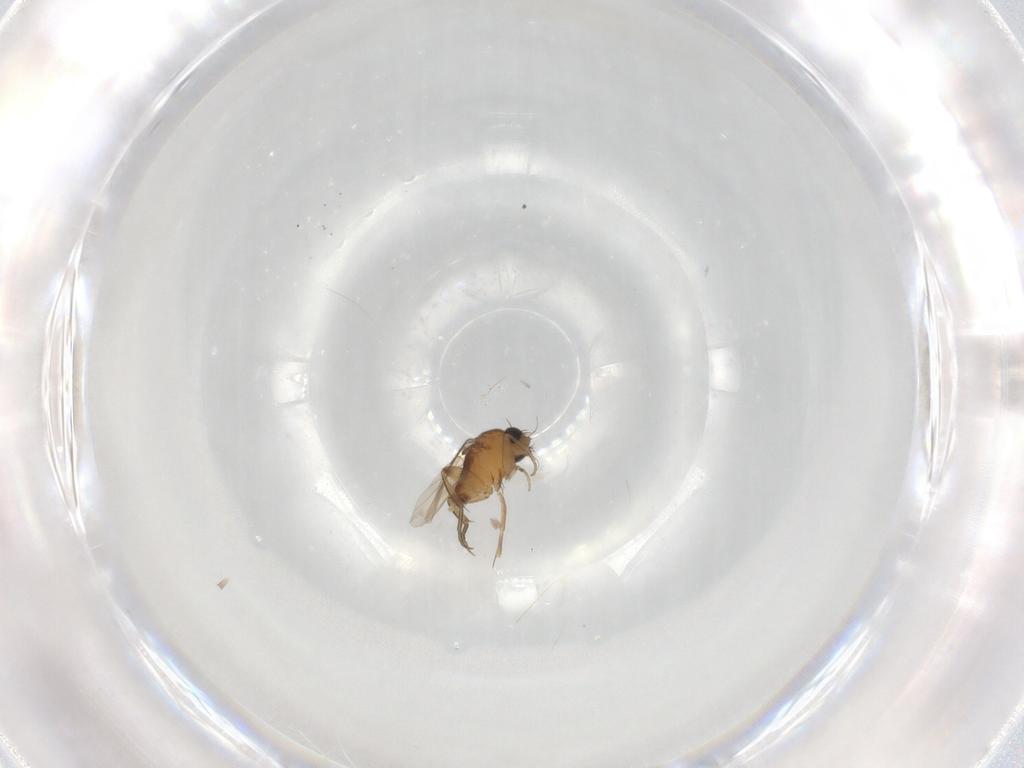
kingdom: Animalia
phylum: Arthropoda
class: Insecta
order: Diptera
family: Phoridae
